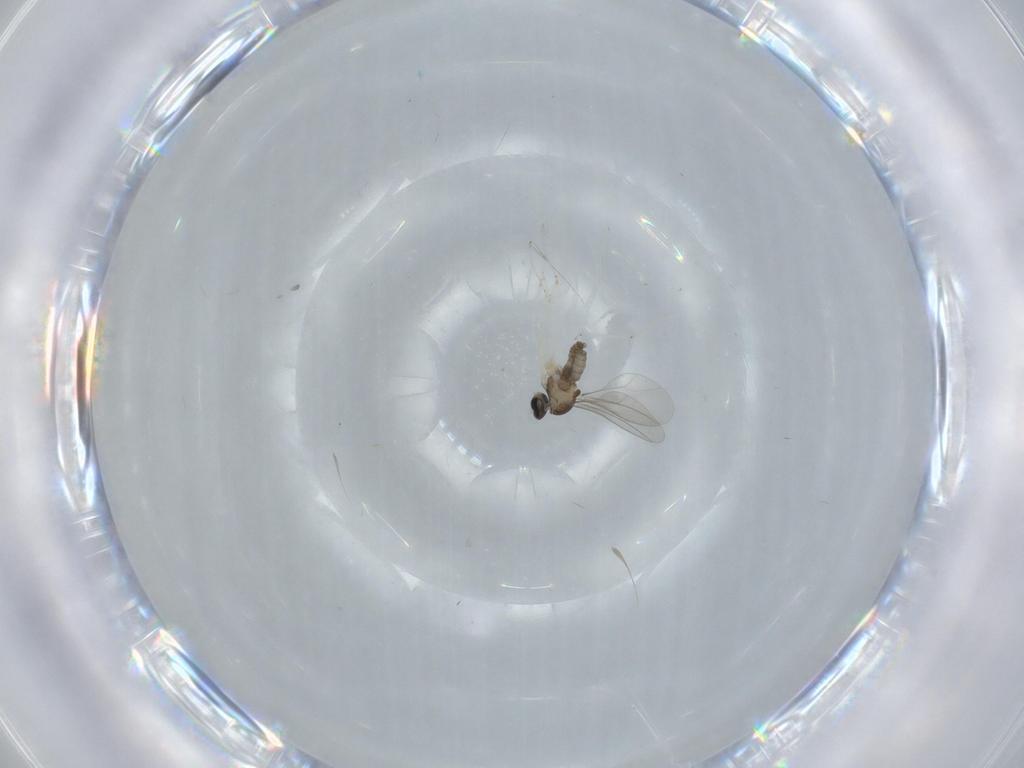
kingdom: Animalia
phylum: Arthropoda
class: Insecta
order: Diptera
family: Cecidomyiidae
